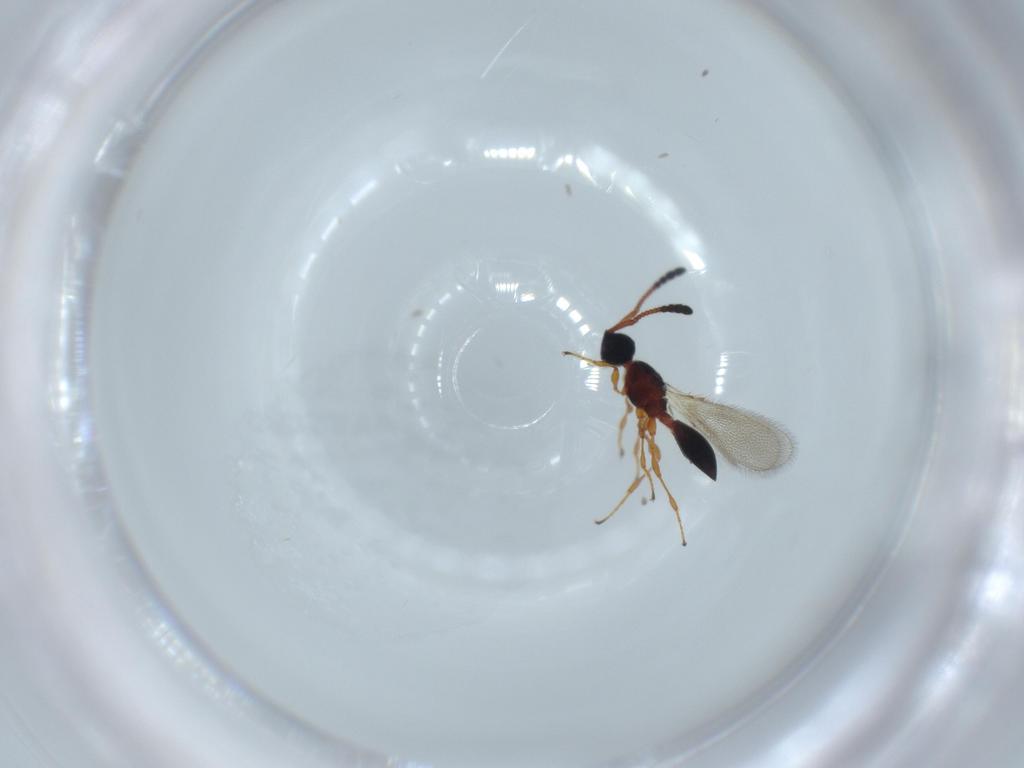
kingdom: Animalia
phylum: Arthropoda
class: Insecta
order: Hymenoptera
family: Diapriidae
